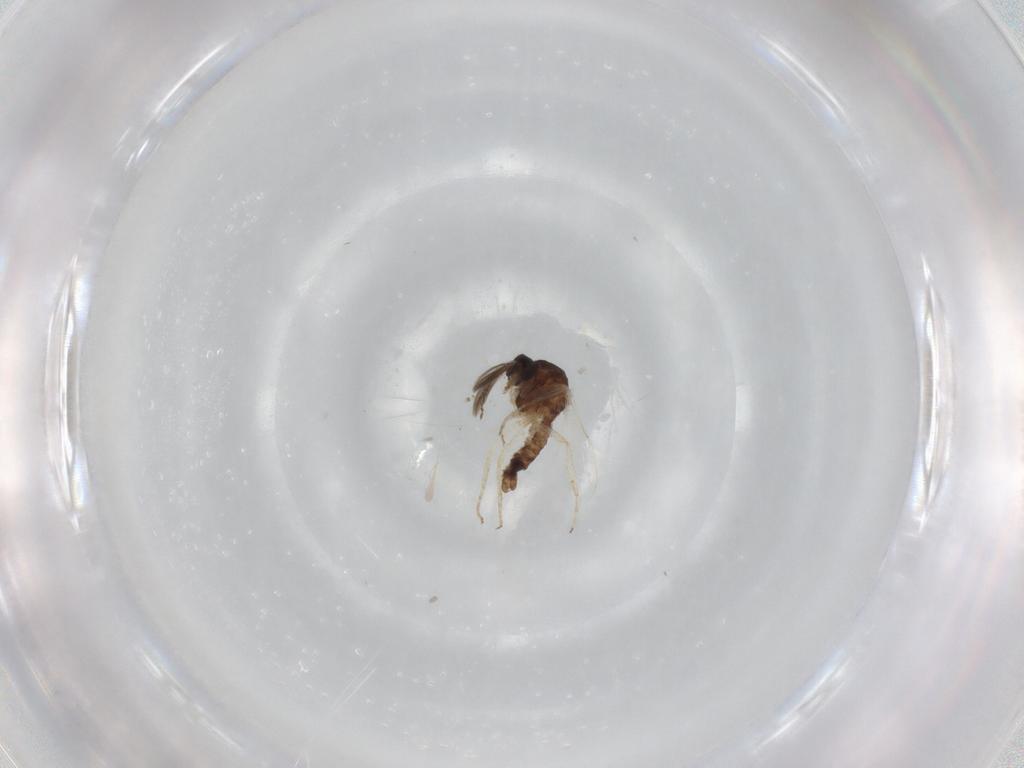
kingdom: Animalia
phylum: Arthropoda
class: Insecta
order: Diptera
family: Ceratopogonidae
